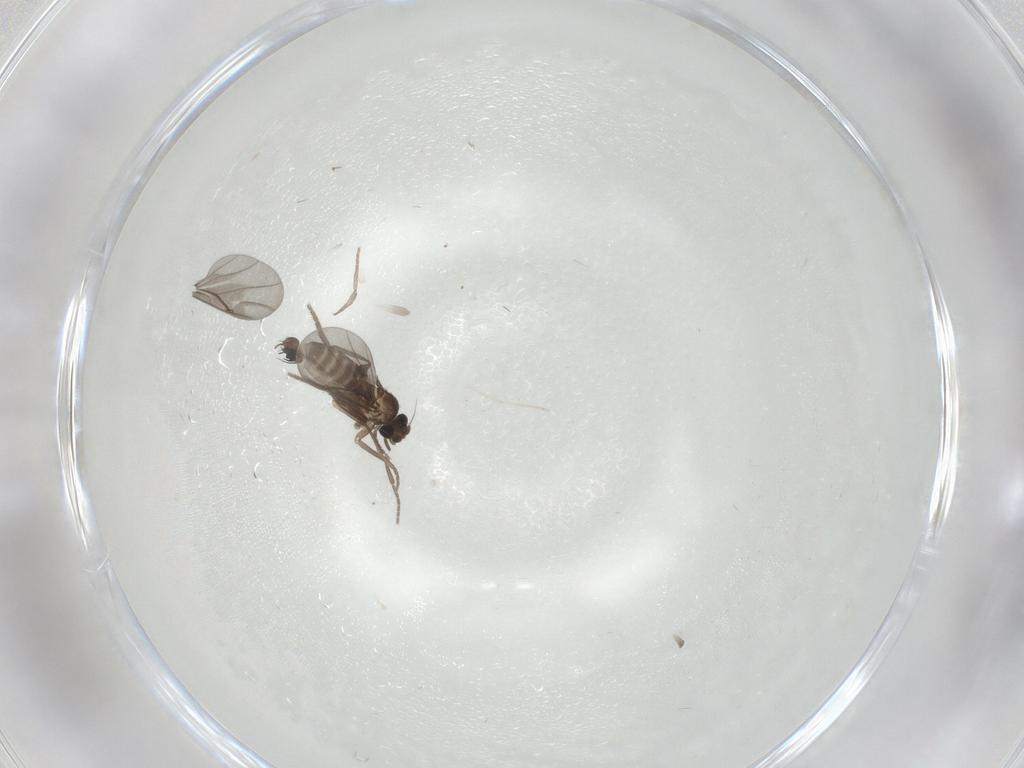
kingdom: Animalia
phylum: Arthropoda
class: Insecta
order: Diptera
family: Phoridae
